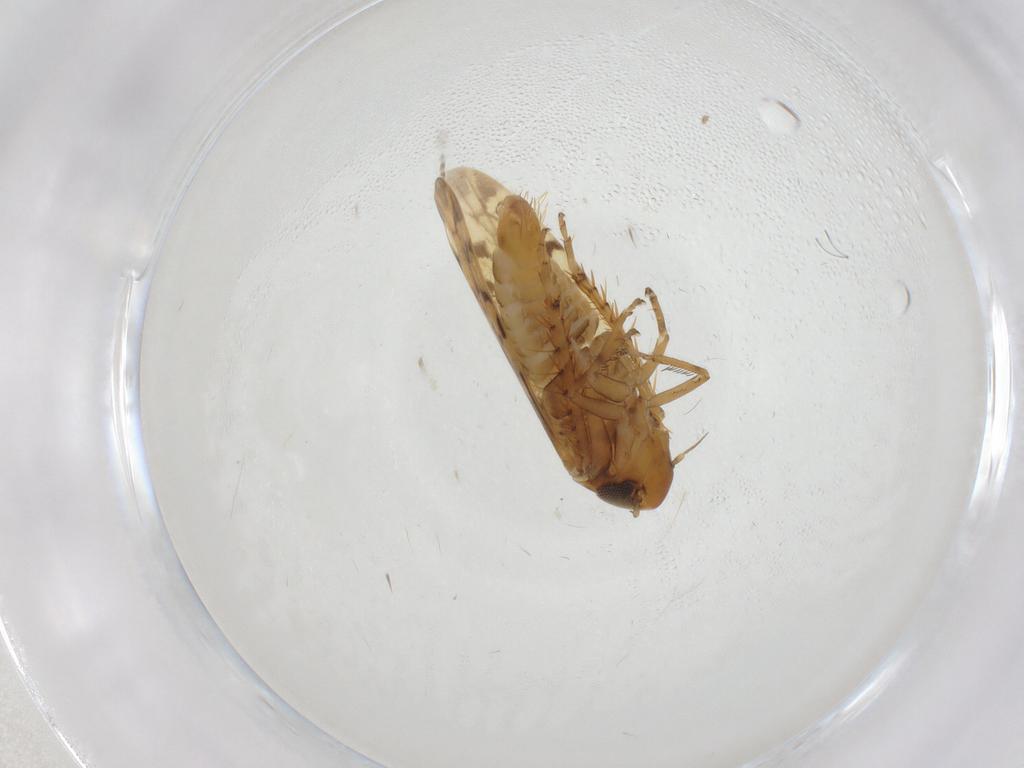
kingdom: Animalia
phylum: Arthropoda
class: Insecta
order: Hemiptera
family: Cicadellidae
